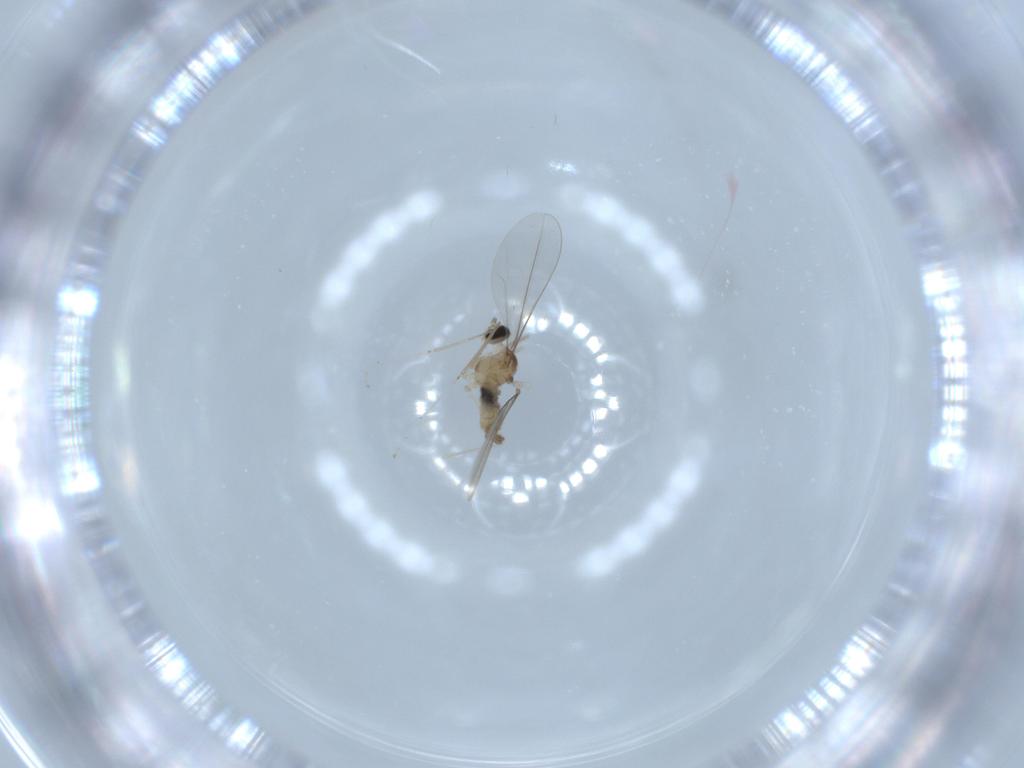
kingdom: Animalia
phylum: Arthropoda
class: Insecta
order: Diptera
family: Cecidomyiidae
